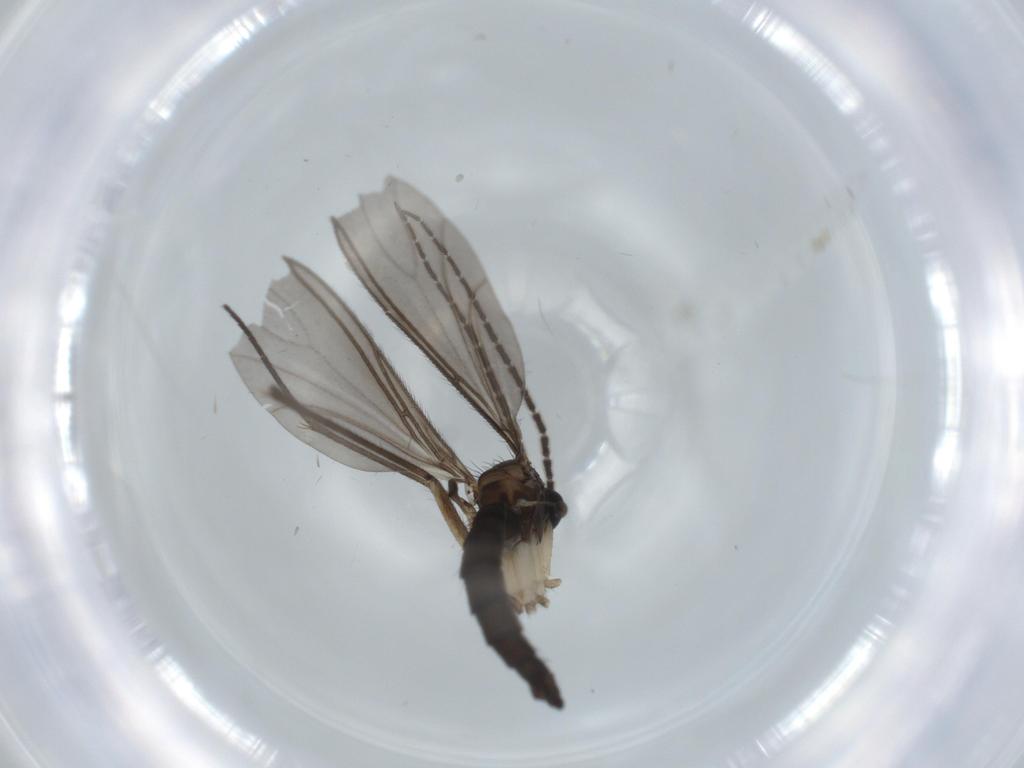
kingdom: Animalia
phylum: Arthropoda
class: Insecta
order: Diptera
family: Sciaridae
